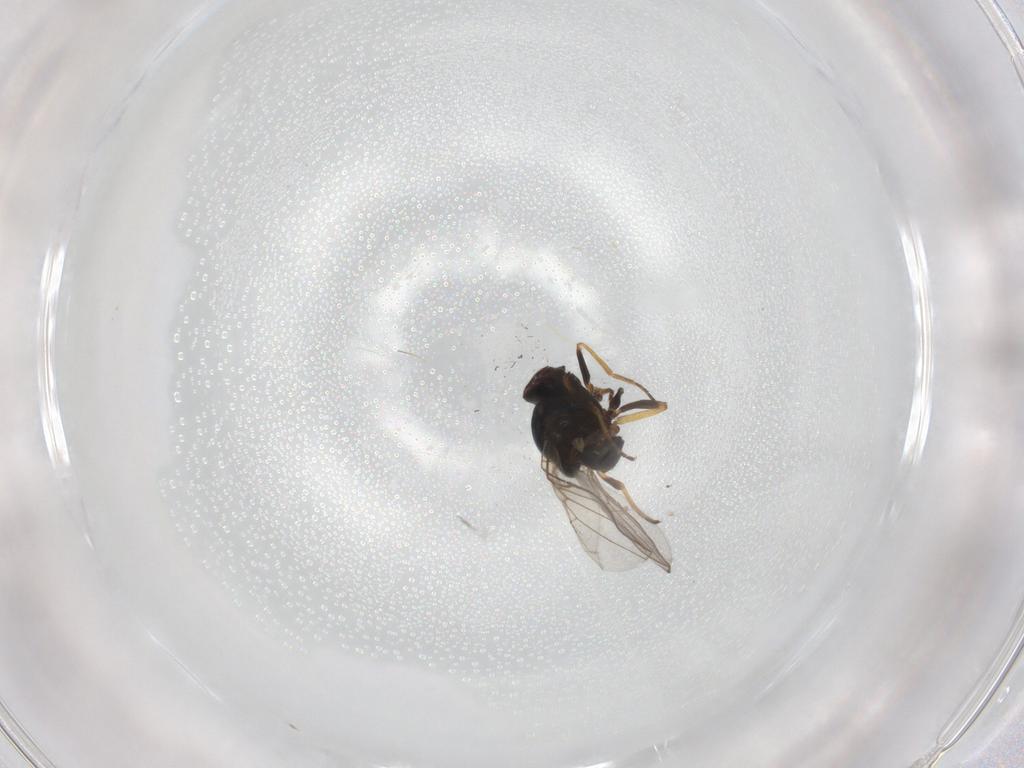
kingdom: Animalia
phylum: Arthropoda
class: Insecta
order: Diptera
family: Chloropidae
